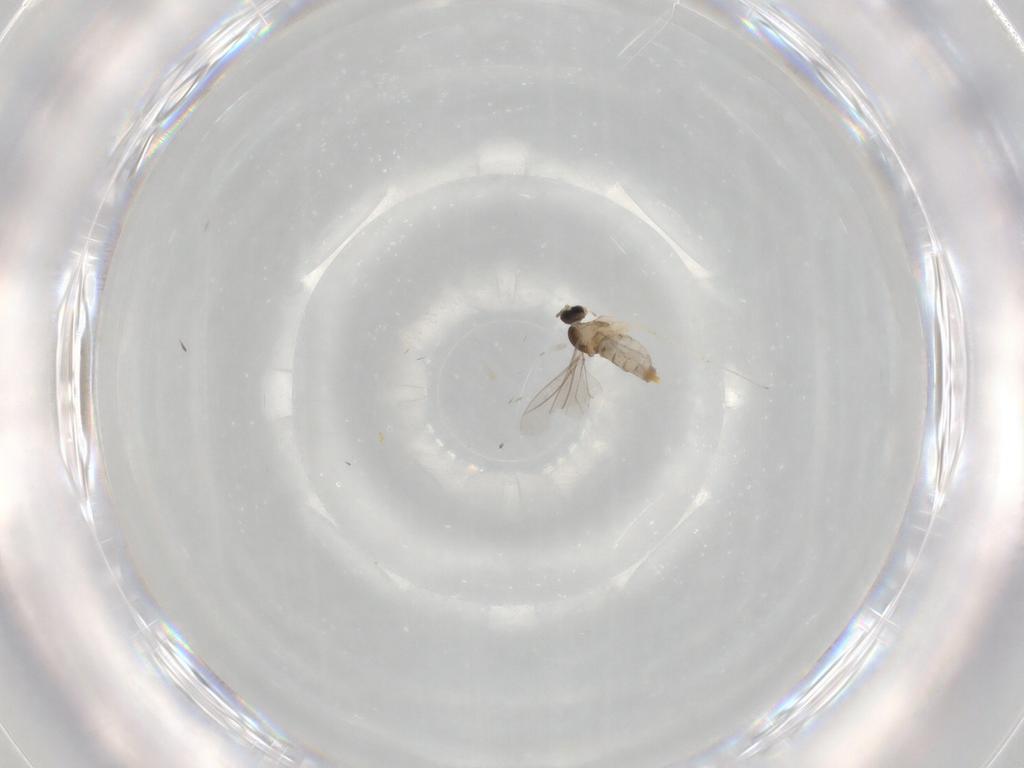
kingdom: Animalia
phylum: Arthropoda
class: Insecta
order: Diptera
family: Cecidomyiidae
